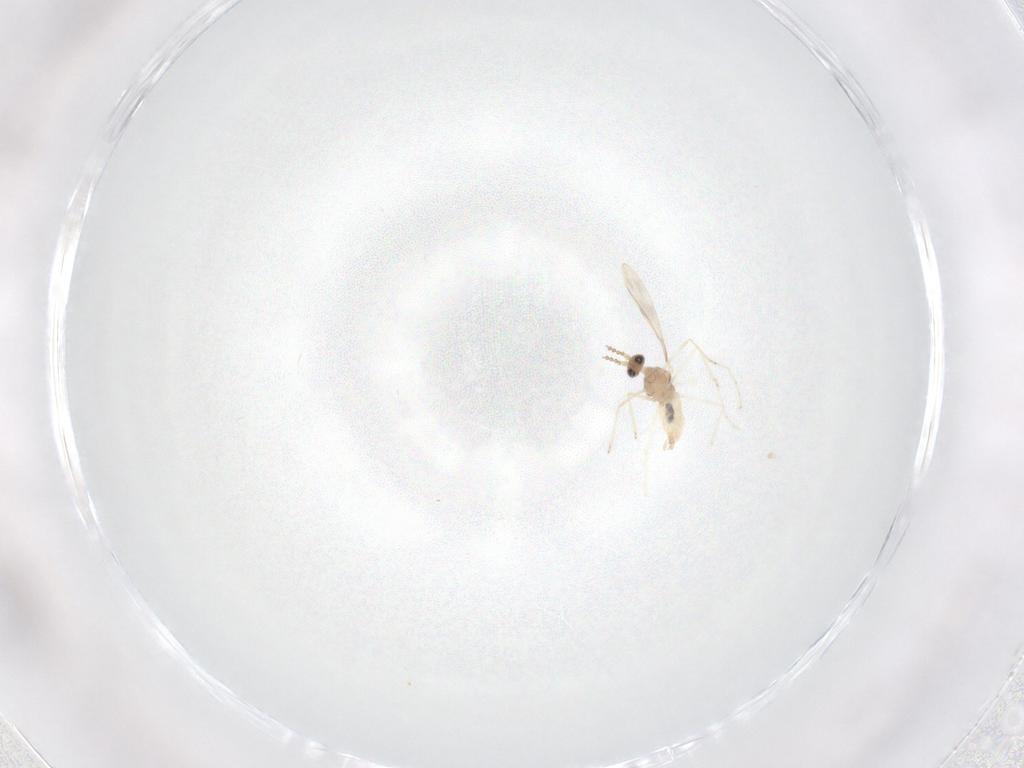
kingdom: Animalia
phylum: Arthropoda
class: Insecta
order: Diptera
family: Cecidomyiidae
